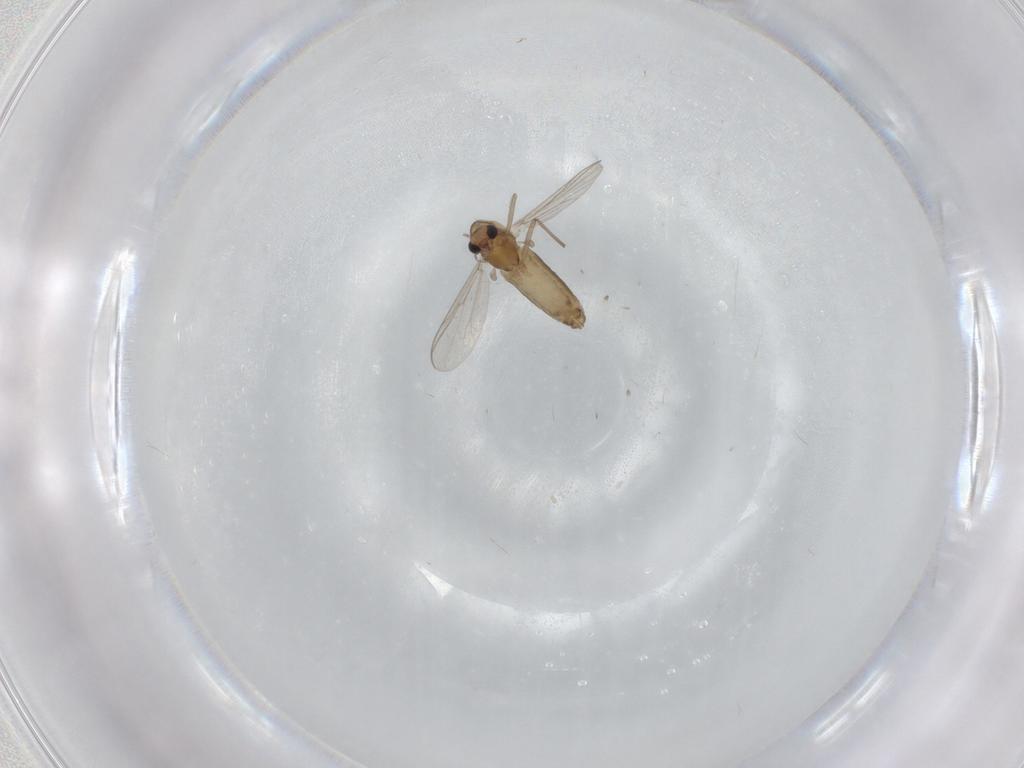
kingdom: Animalia
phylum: Arthropoda
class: Insecta
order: Diptera
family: Chironomidae
